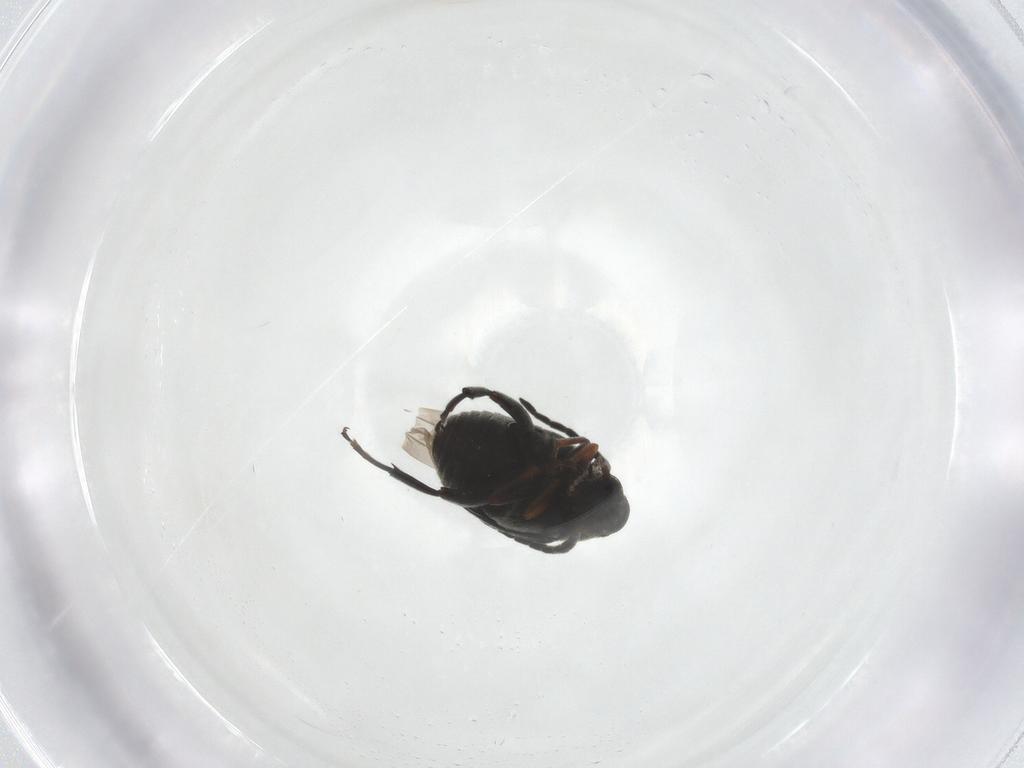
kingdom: Animalia
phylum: Arthropoda
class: Insecta
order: Coleoptera
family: Chrysomelidae
